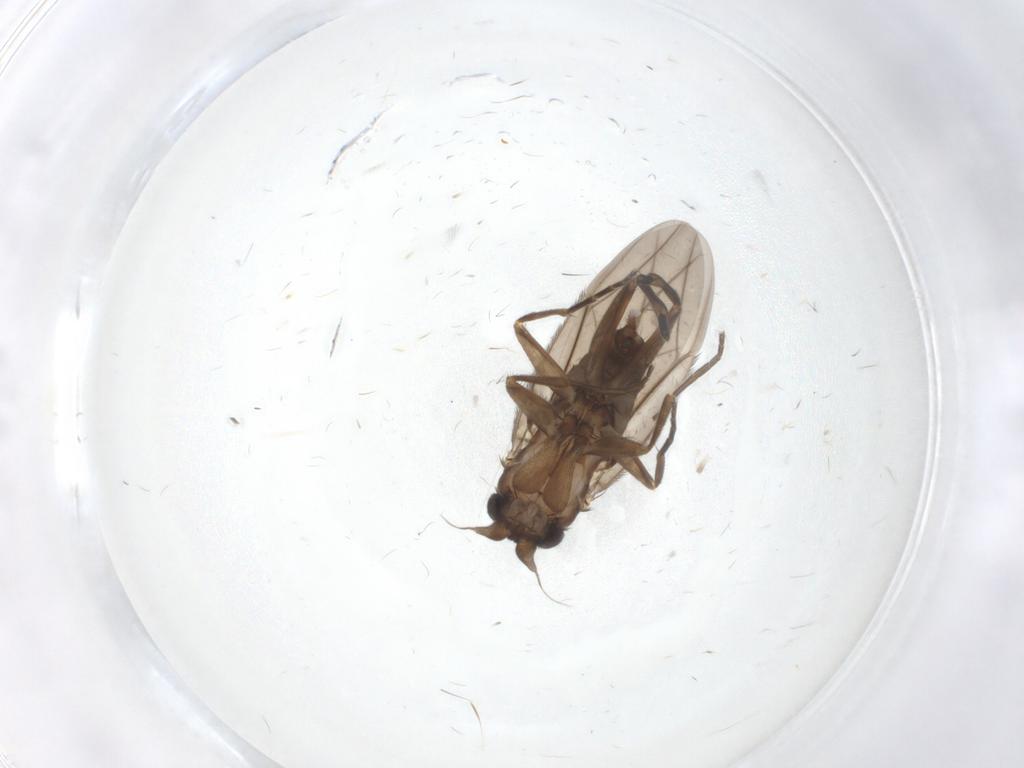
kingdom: Animalia
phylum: Arthropoda
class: Insecta
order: Diptera
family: Phoridae
